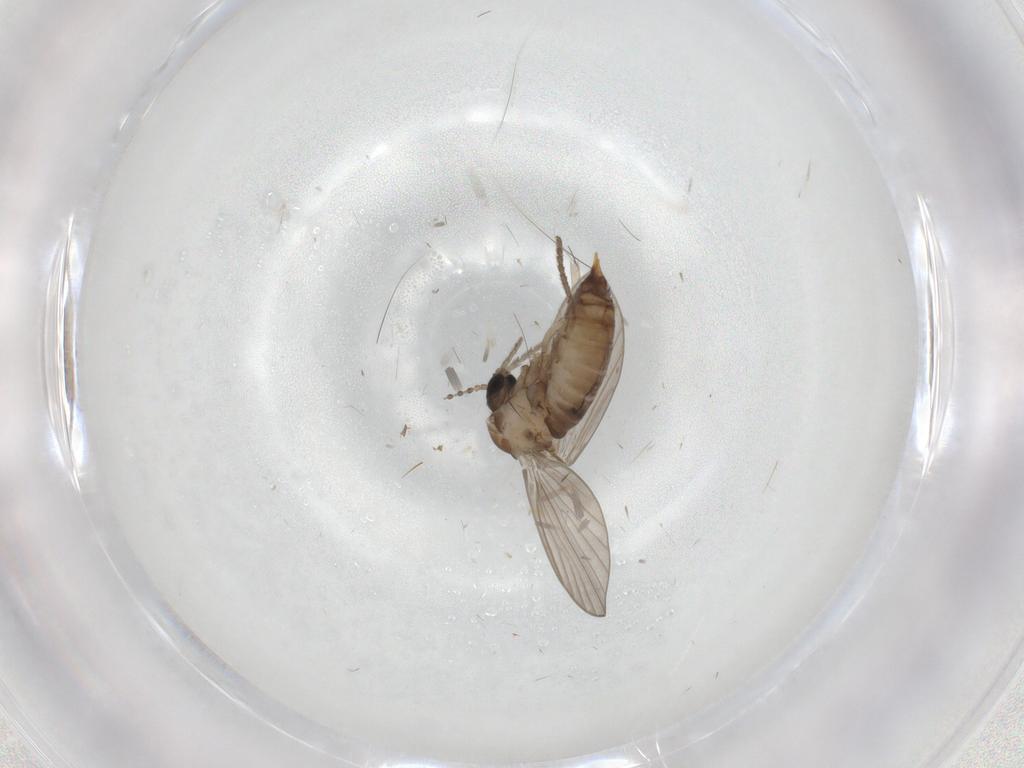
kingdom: Animalia
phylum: Arthropoda
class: Insecta
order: Diptera
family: Psychodidae
